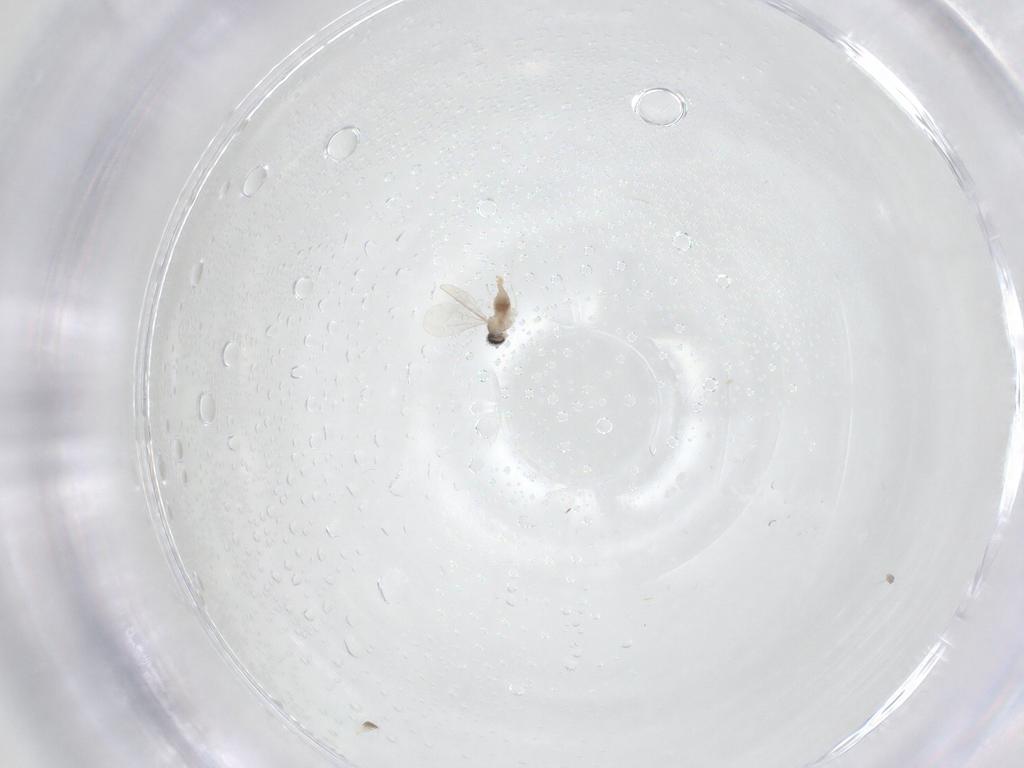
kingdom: Animalia
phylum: Arthropoda
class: Insecta
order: Diptera
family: Cecidomyiidae
